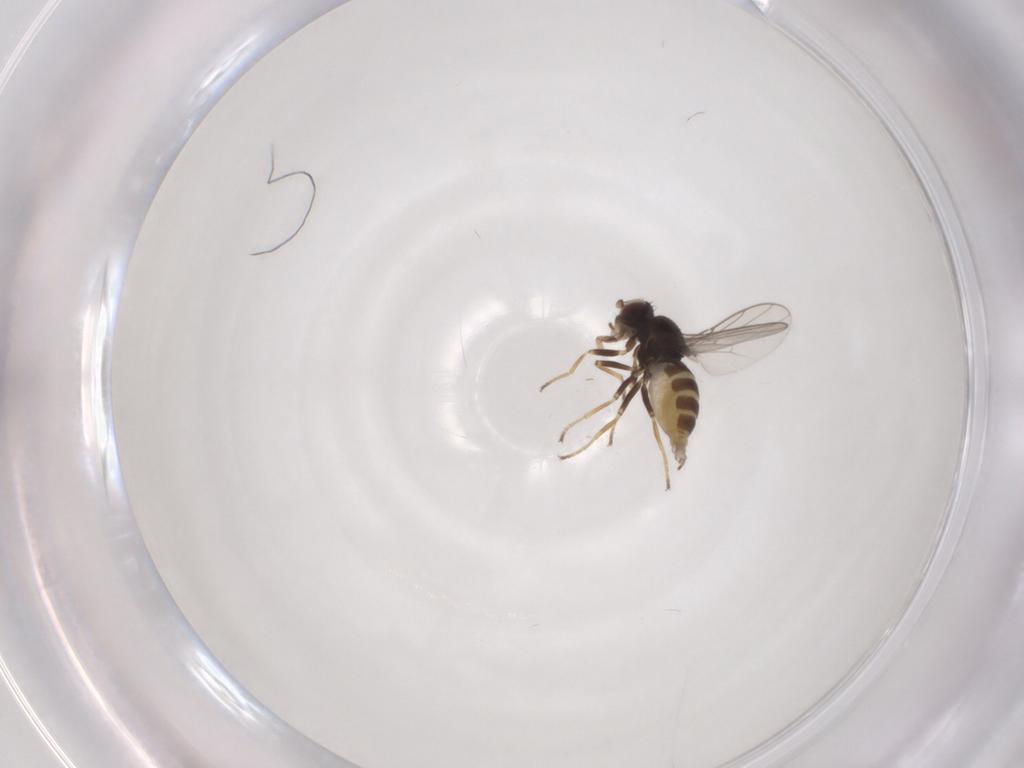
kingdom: Animalia
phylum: Arthropoda
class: Insecta
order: Diptera
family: Chloropidae
